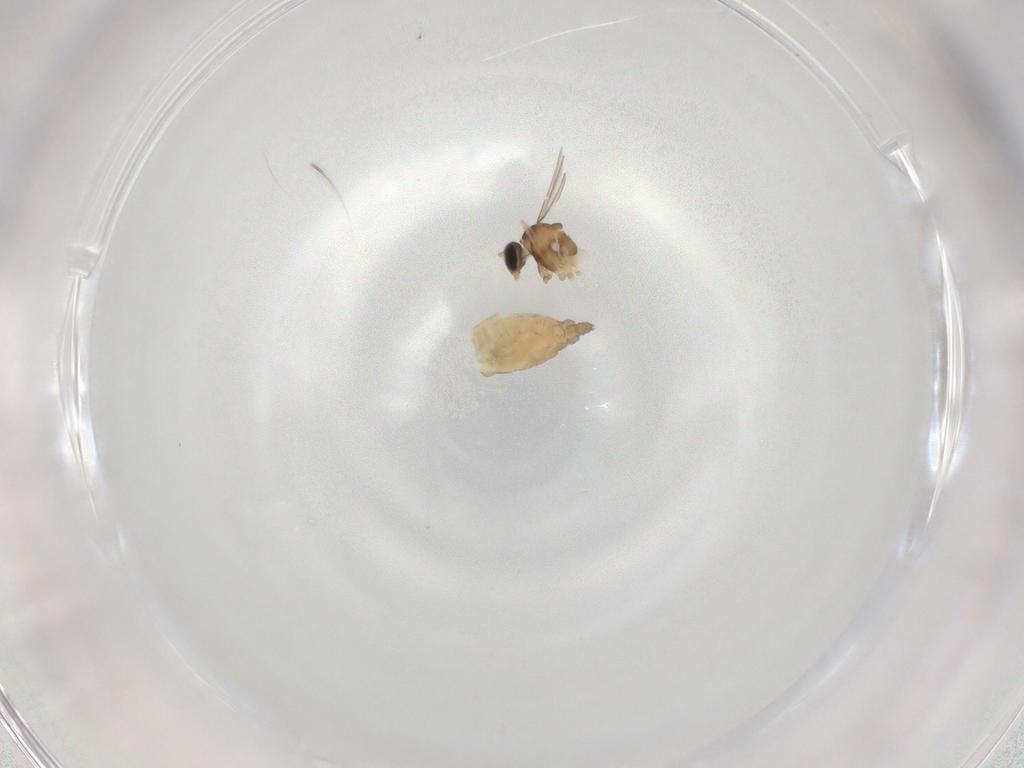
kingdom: Animalia
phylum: Arthropoda
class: Insecta
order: Diptera
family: Cecidomyiidae
